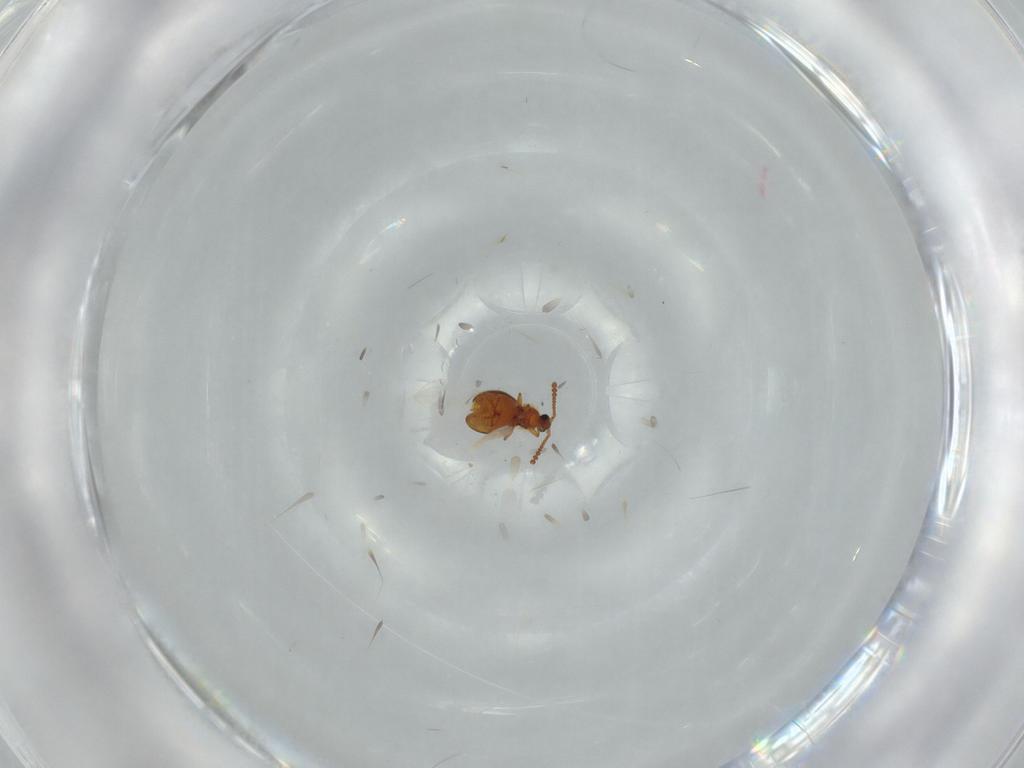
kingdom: Animalia
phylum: Arthropoda
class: Insecta
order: Coleoptera
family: Staphylinidae
